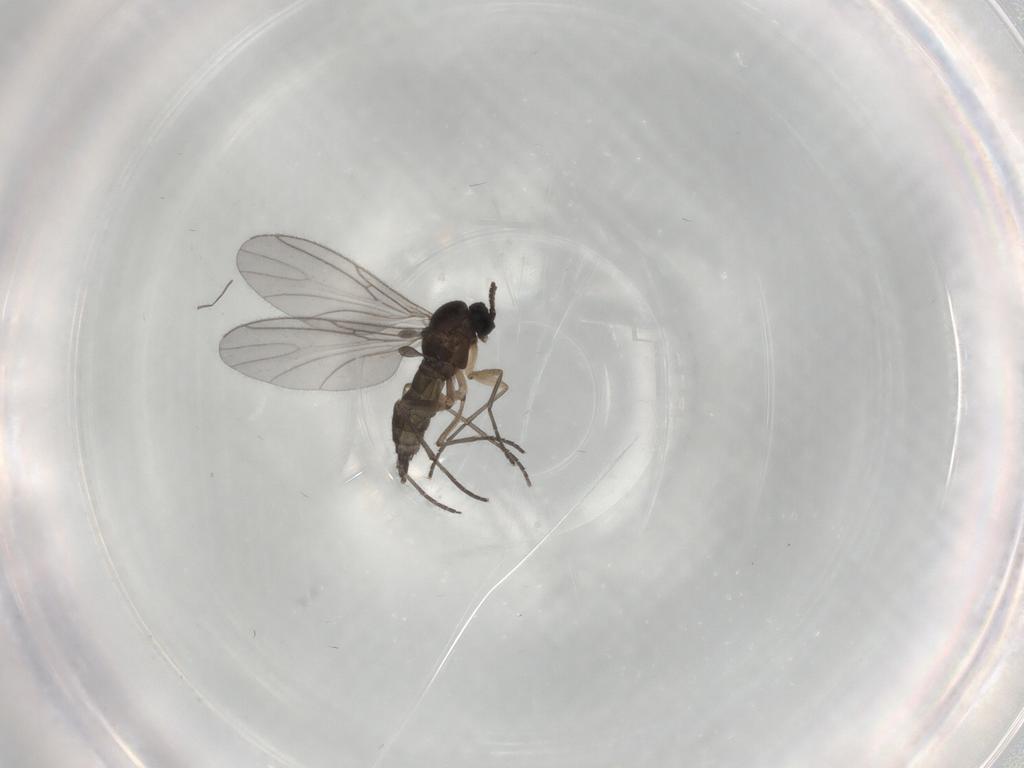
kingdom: Animalia
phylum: Arthropoda
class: Insecta
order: Diptera
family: Sciaridae
